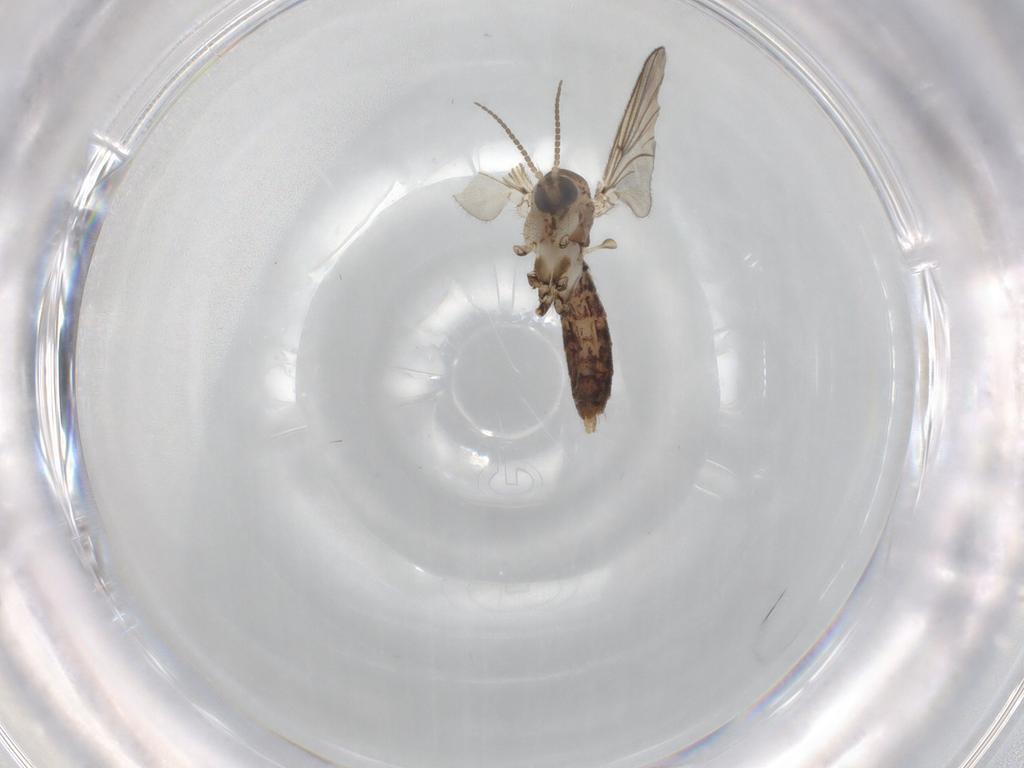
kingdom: Animalia
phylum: Arthropoda
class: Insecta
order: Diptera
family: Mycetophilidae
